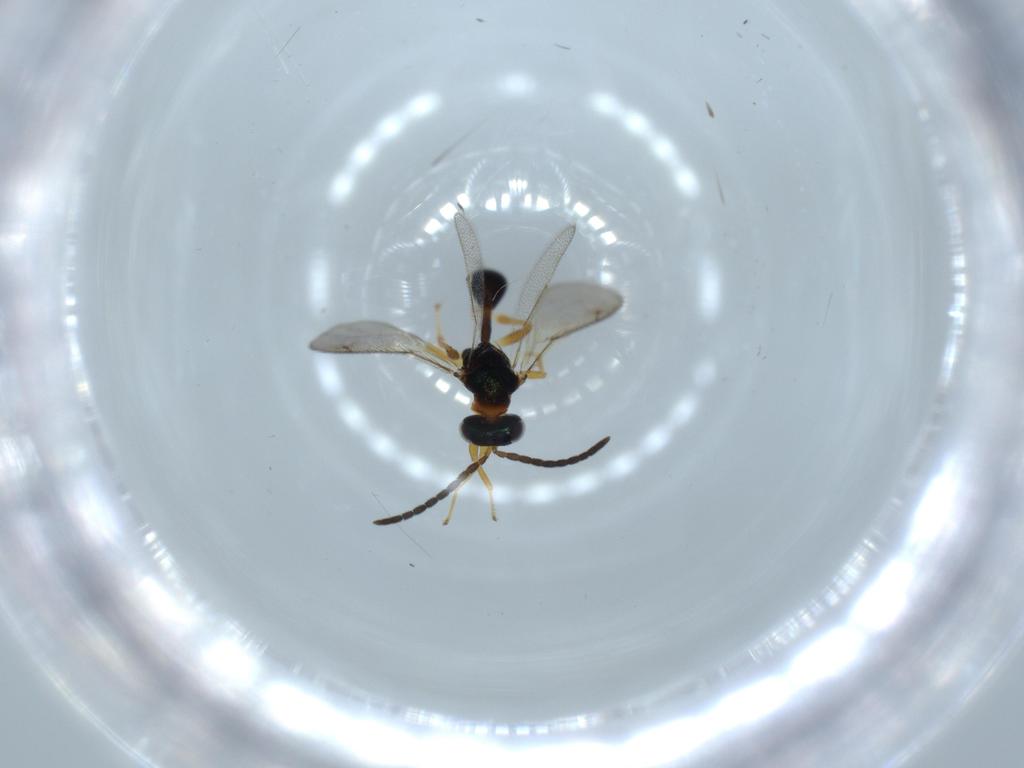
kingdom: Animalia
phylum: Arthropoda
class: Insecta
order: Hymenoptera
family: Diparidae
